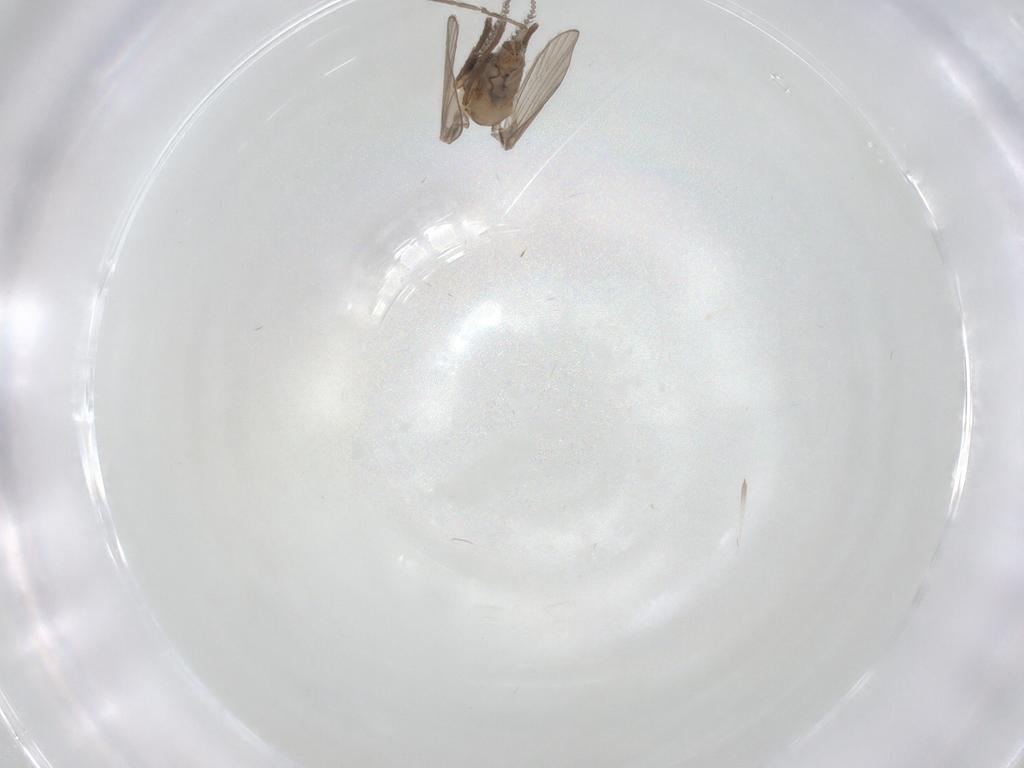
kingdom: Animalia
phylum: Arthropoda
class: Insecta
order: Diptera
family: Psychodidae
